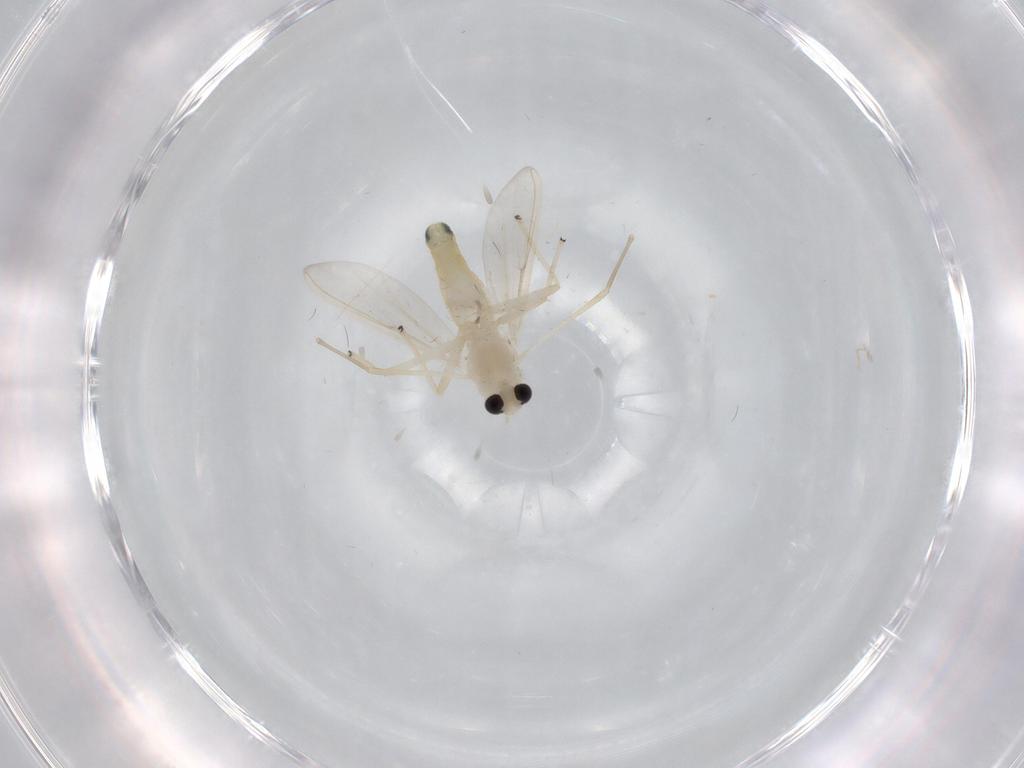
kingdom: Animalia
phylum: Arthropoda
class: Insecta
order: Diptera
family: Chironomidae
